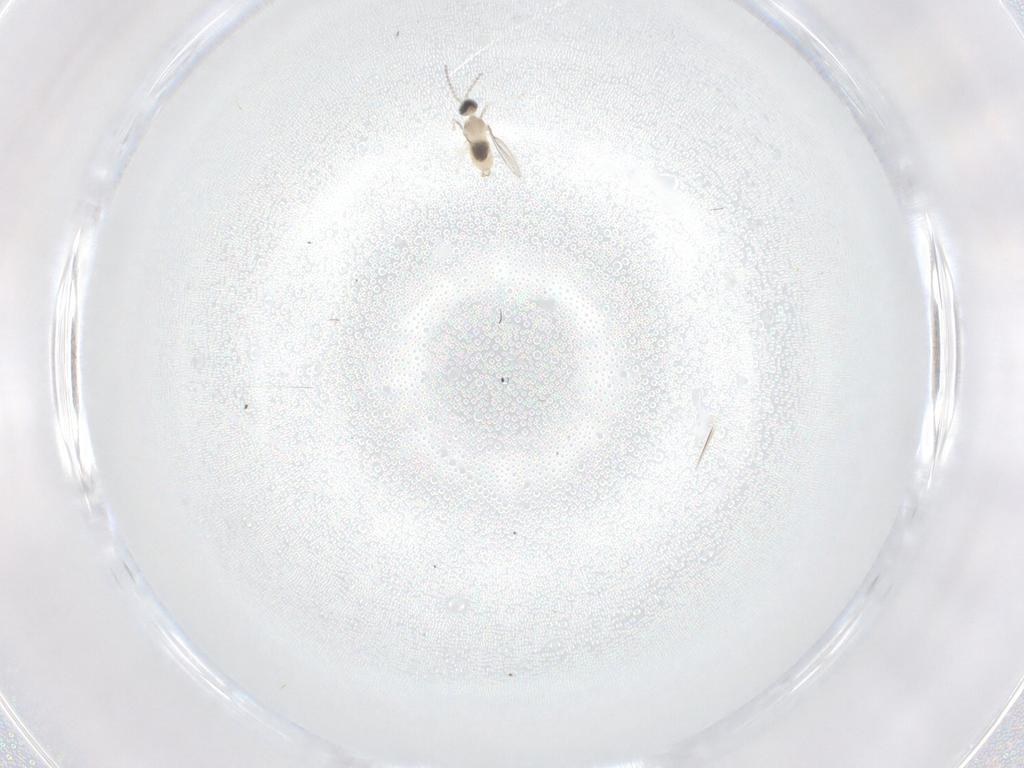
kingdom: Animalia
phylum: Arthropoda
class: Insecta
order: Diptera
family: Cecidomyiidae
